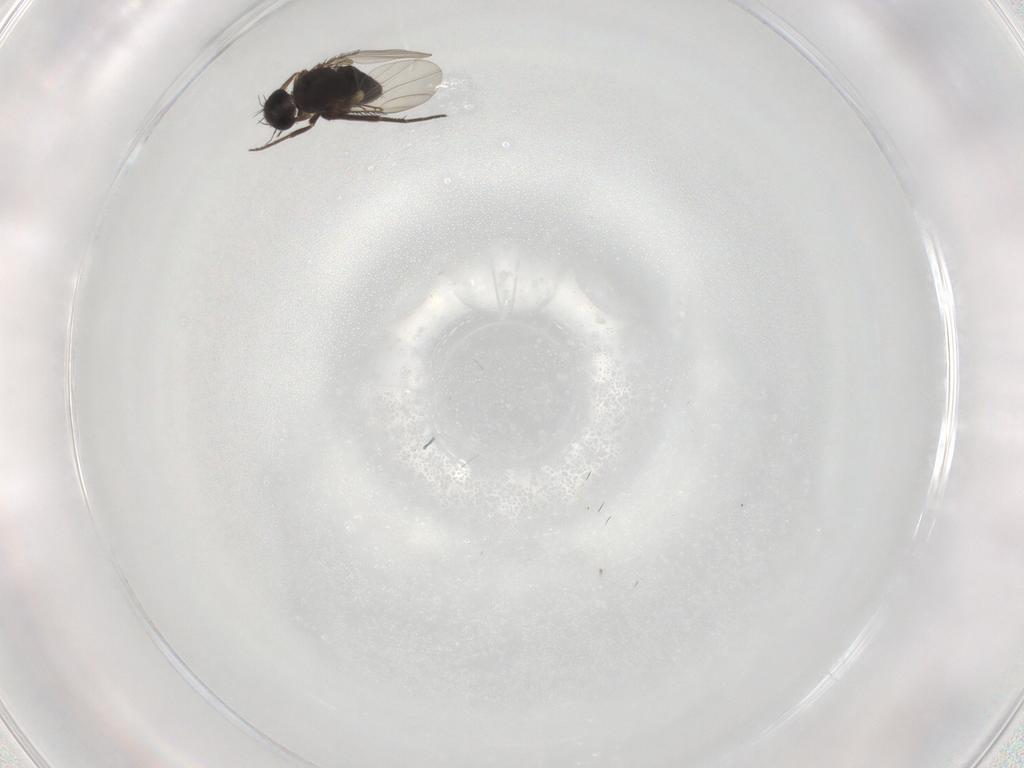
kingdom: Animalia
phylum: Arthropoda
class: Insecta
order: Diptera
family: Phoridae
